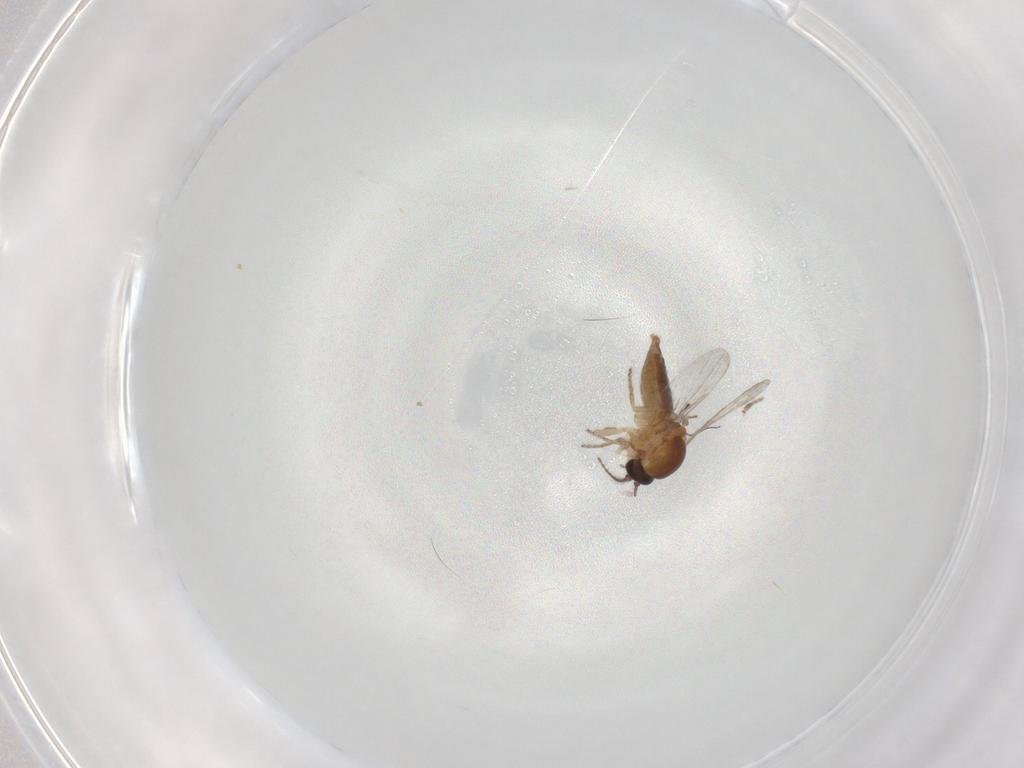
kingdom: Animalia
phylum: Arthropoda
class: Insecta
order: Diptera
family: Ceratopogonidae
